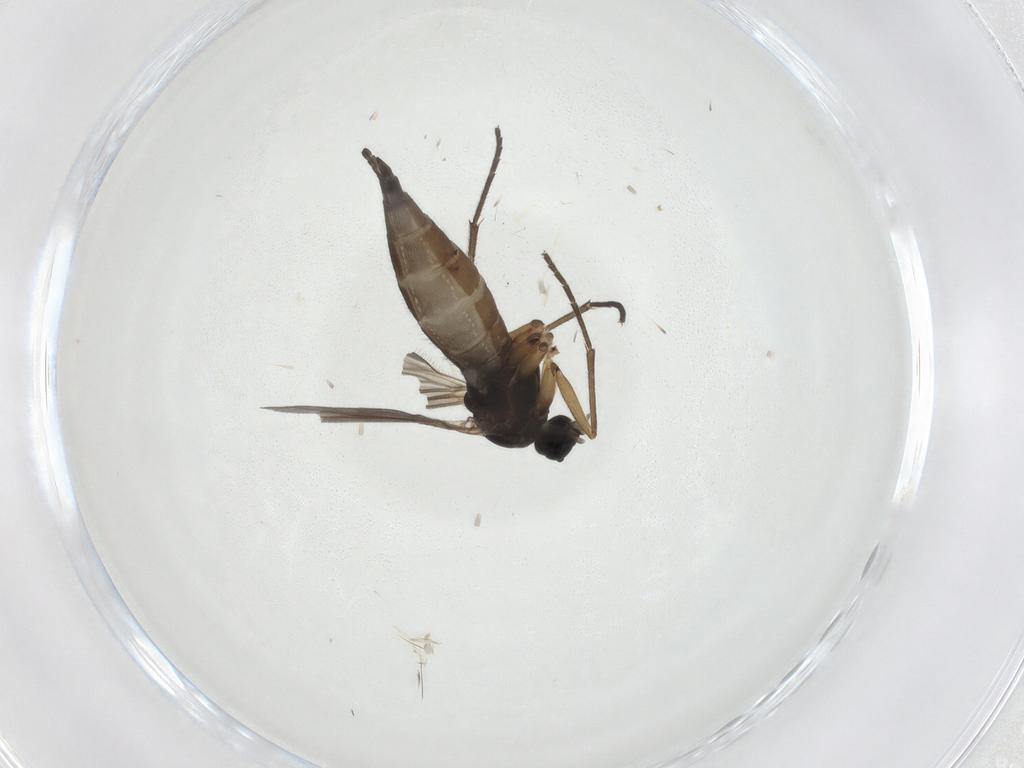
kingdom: Animalia
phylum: Arthropoda
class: Insecta
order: Diptera
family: Sciaridae
